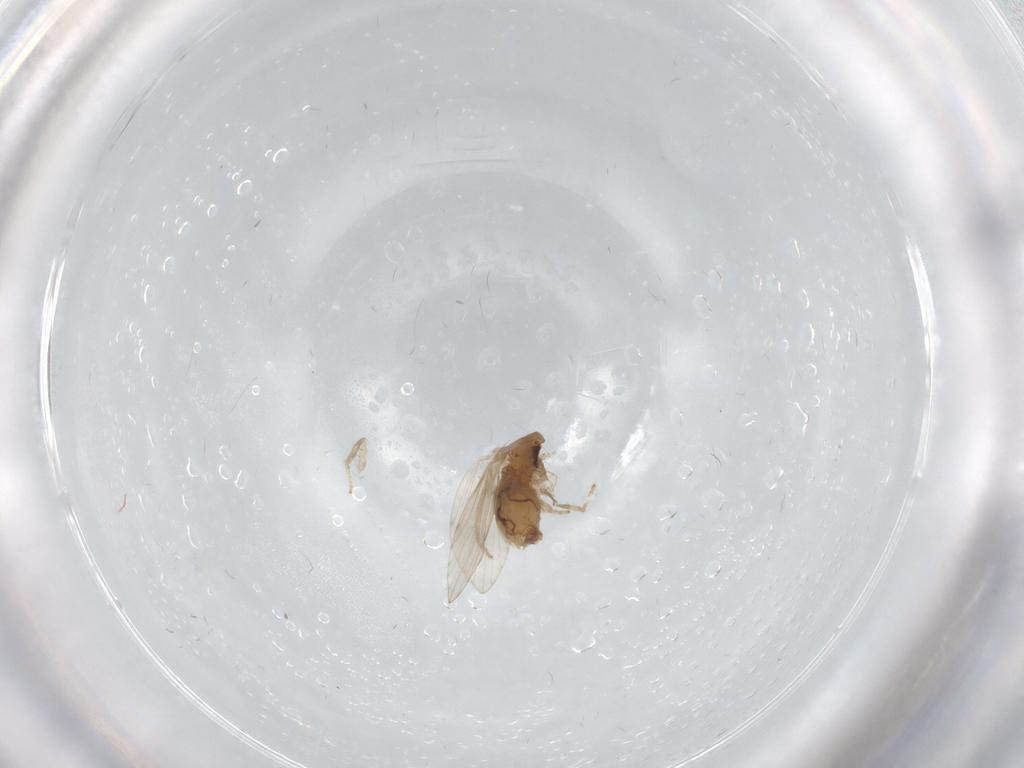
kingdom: Animalia
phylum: Arthropoda
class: Insecta
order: Diptera
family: Psychodidae
